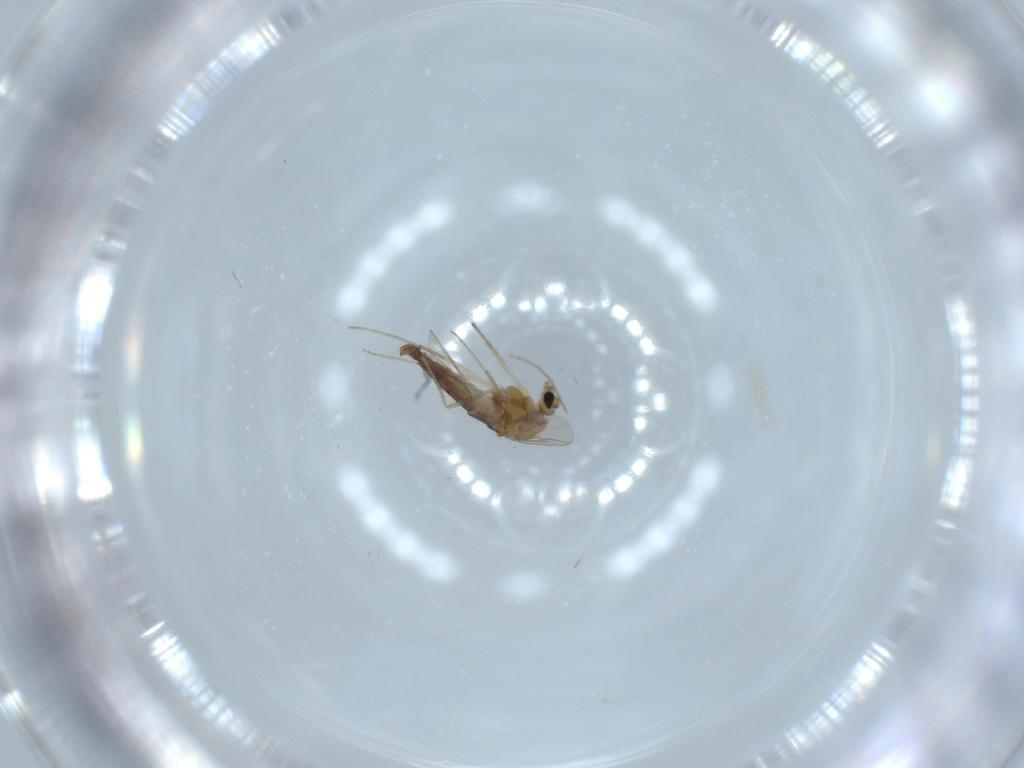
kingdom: Animalia
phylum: Arthropoda
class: Insecta
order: Diptera
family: Chironomidae
